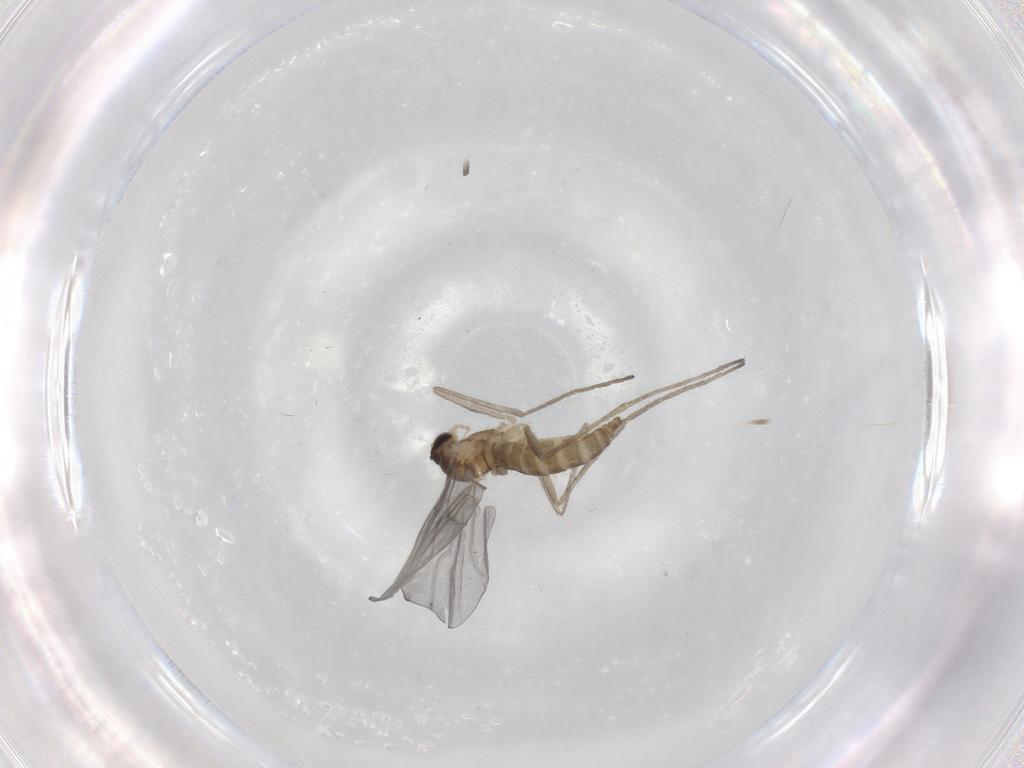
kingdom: Animalia
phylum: Arthropoda
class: Insecta
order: Diptera
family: Cecidomyiidae
